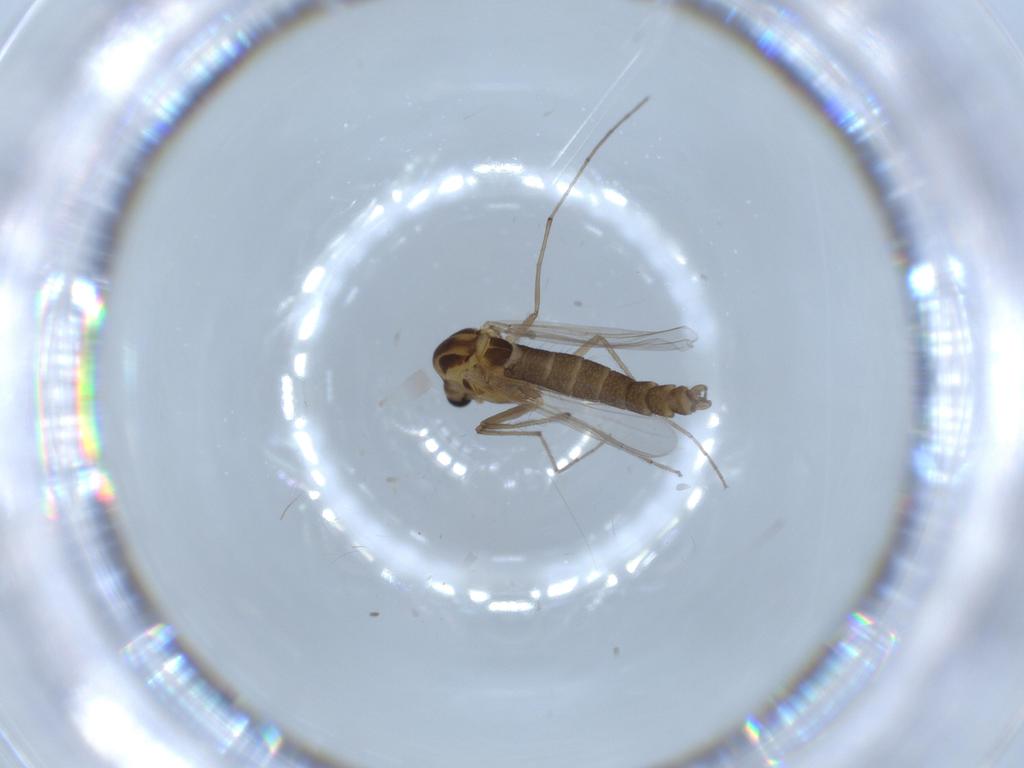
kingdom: Animalia
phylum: Arthropoda
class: Insecta
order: Diptera
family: Chironomidae
